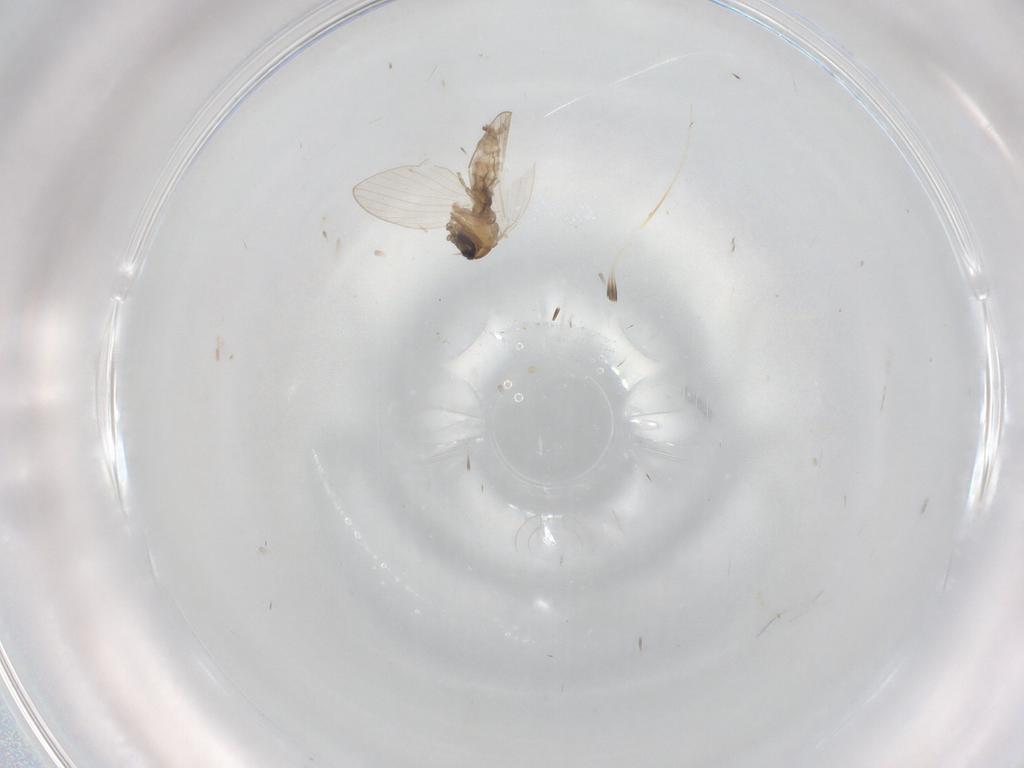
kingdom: Animalia
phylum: Arthropoda
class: Insecta
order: Diptera
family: Psychodidae
